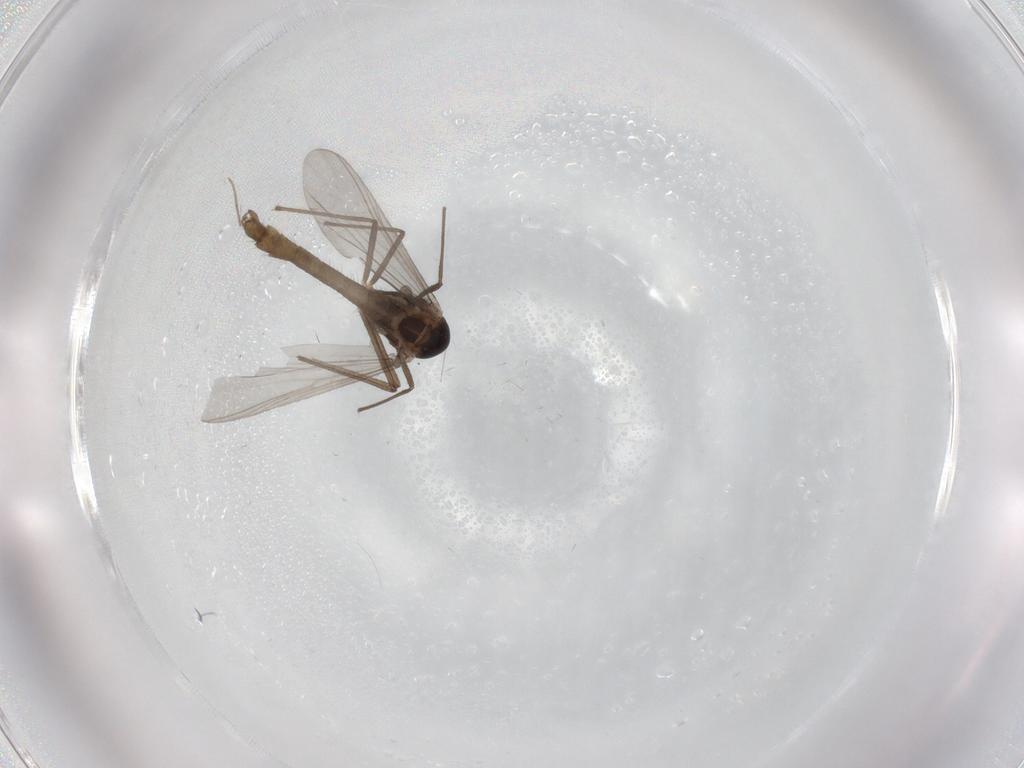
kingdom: Animalia
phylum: Arthropoda
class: Insecta
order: Diptera
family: Chironomidae
